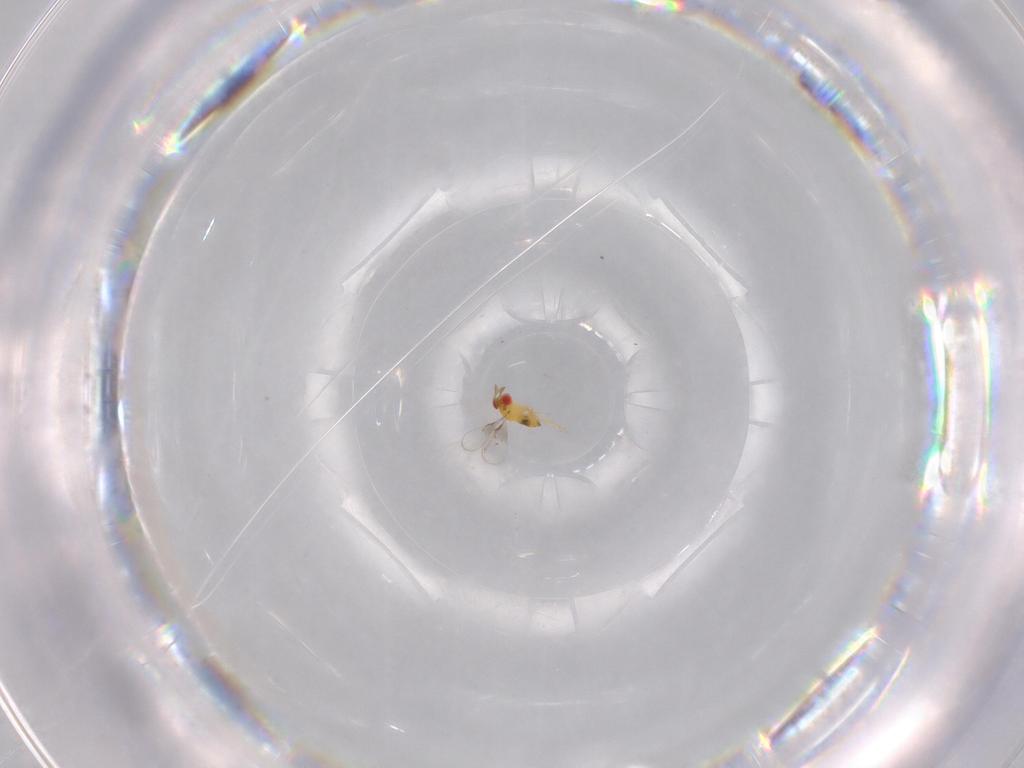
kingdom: Animalia
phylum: Arthropoda
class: Insecta
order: Hymenoptera
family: Trichogrammatidae
